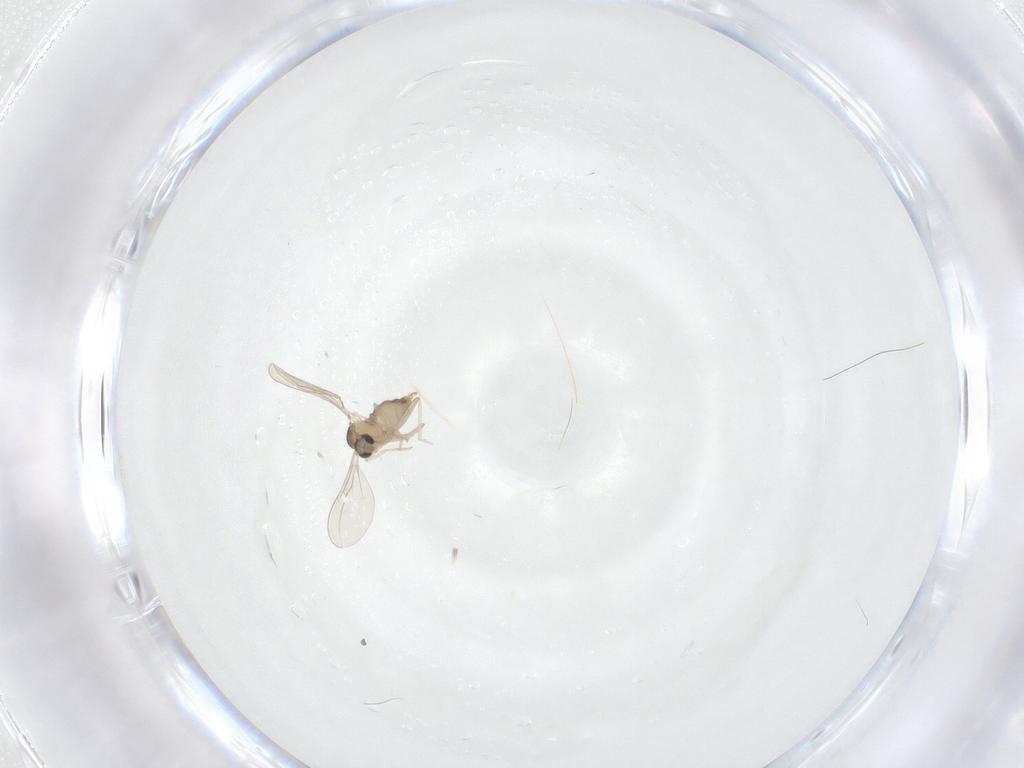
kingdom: Animalia
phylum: Arthropoda
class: Insecta
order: Diptera
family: Cecidomyiidae
